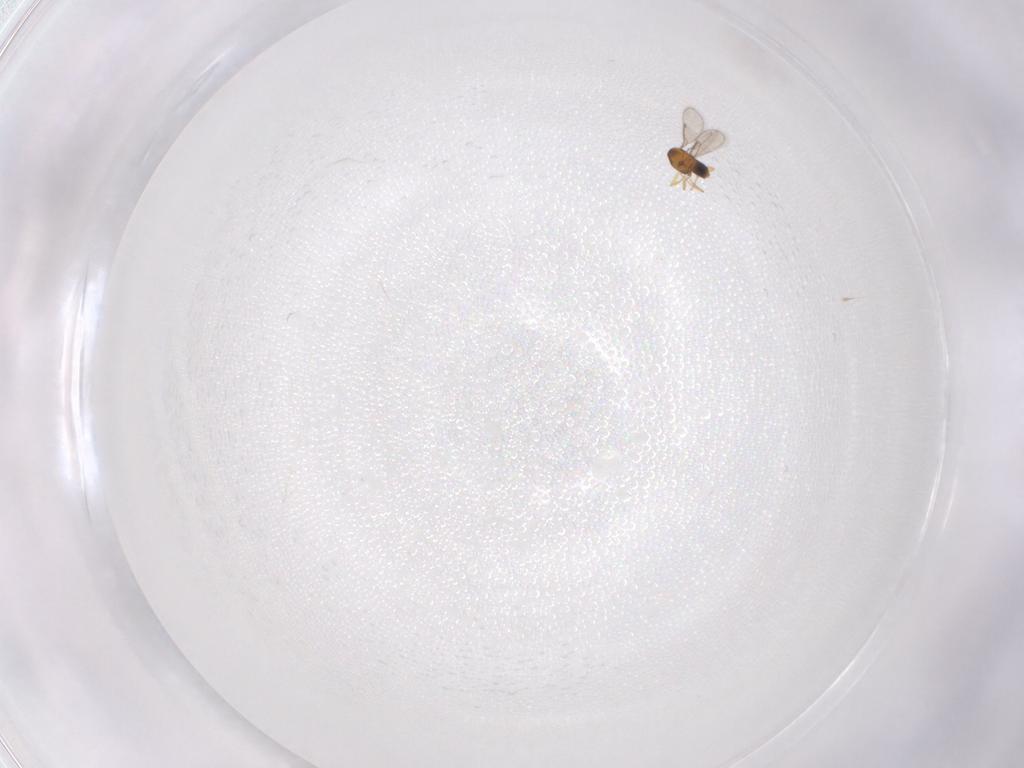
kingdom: Animalia
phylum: Arthropoda
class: Insecta
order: Hymenoptera
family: Aphelinidae
